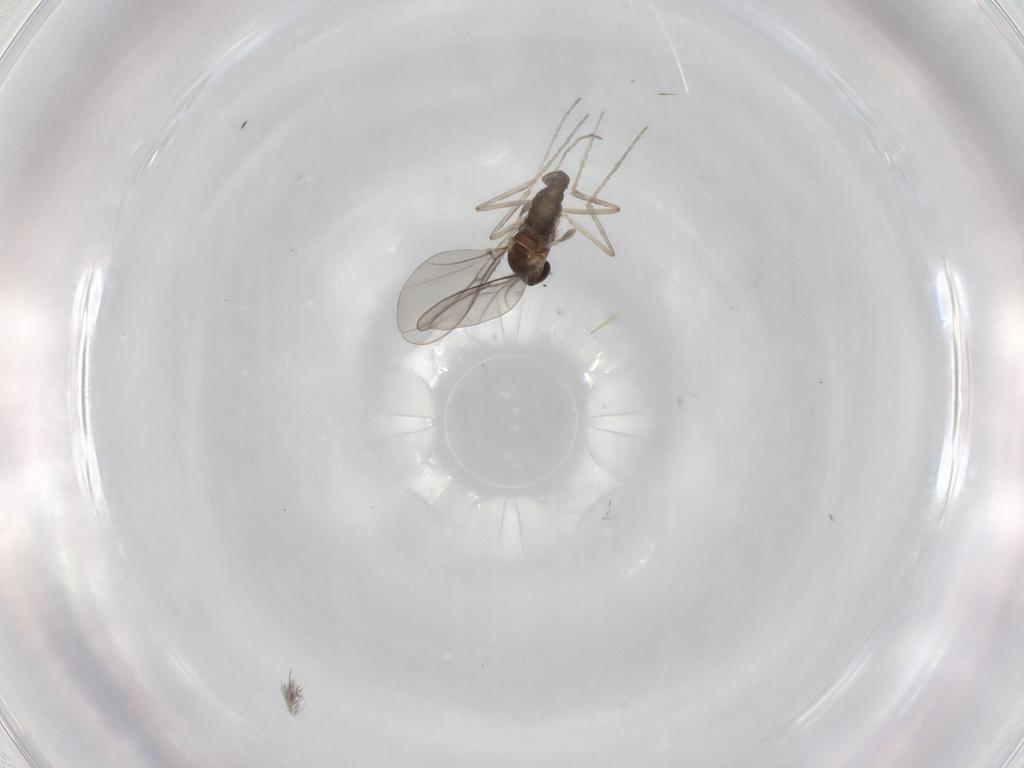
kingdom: Animalia
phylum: Arthropoda
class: Insecta
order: Diptera
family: Cecidomyiidae
